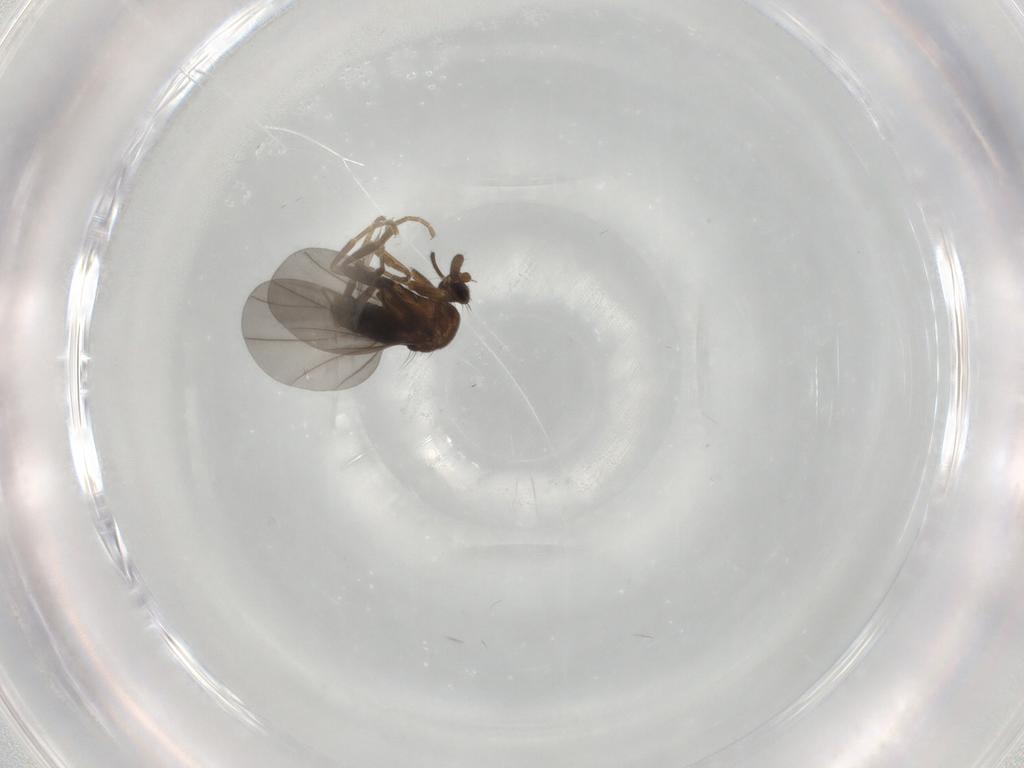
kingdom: Animalia
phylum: Arthropoda
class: Insecta
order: Diptera
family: Phoridae
